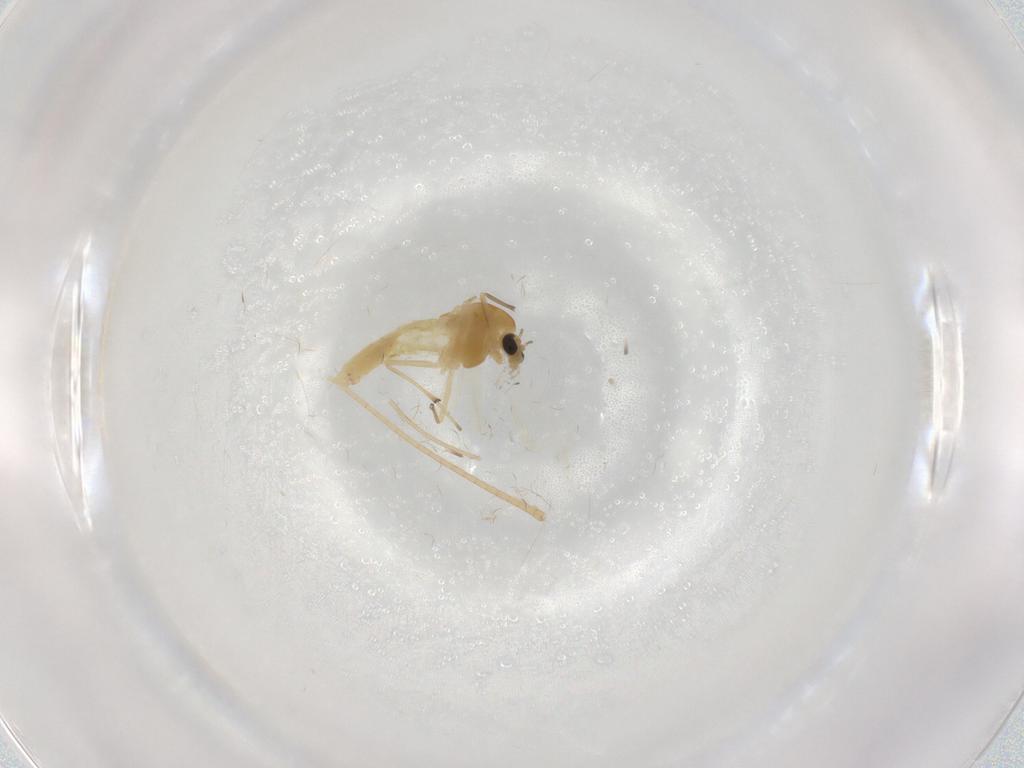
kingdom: Animalia
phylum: Arthropoda
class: Insecta
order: Diptera
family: Chironomidae
